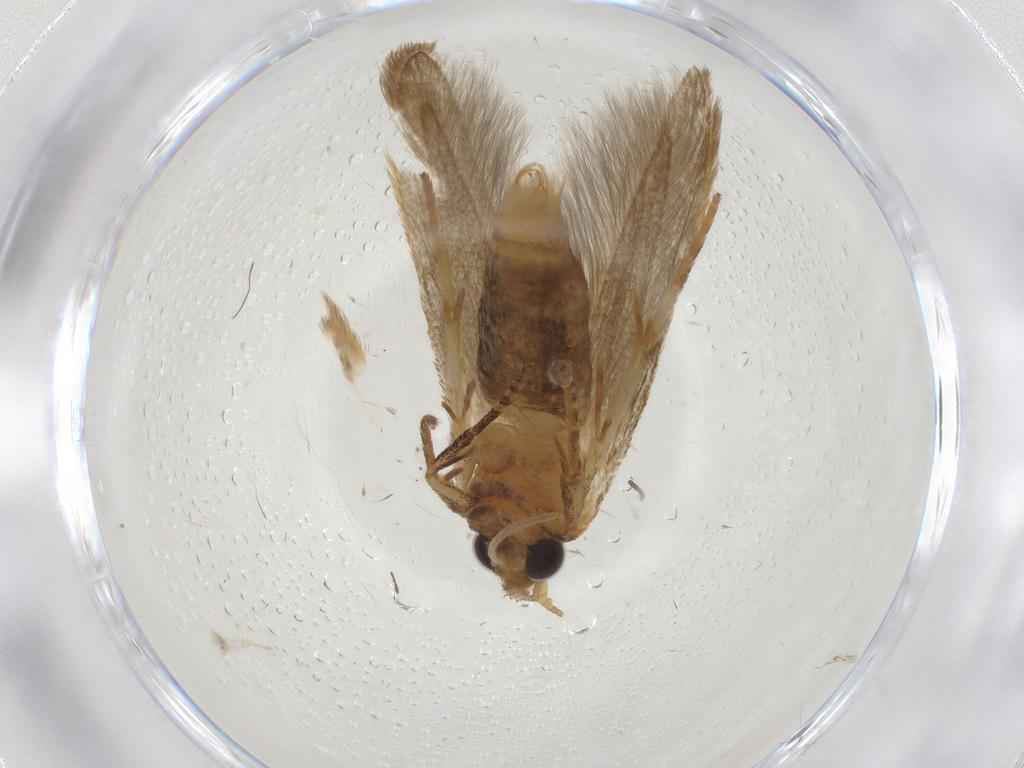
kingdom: Animalia
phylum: Arthropoda
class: Insecta
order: Lepidoptera
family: Blastobasidae
